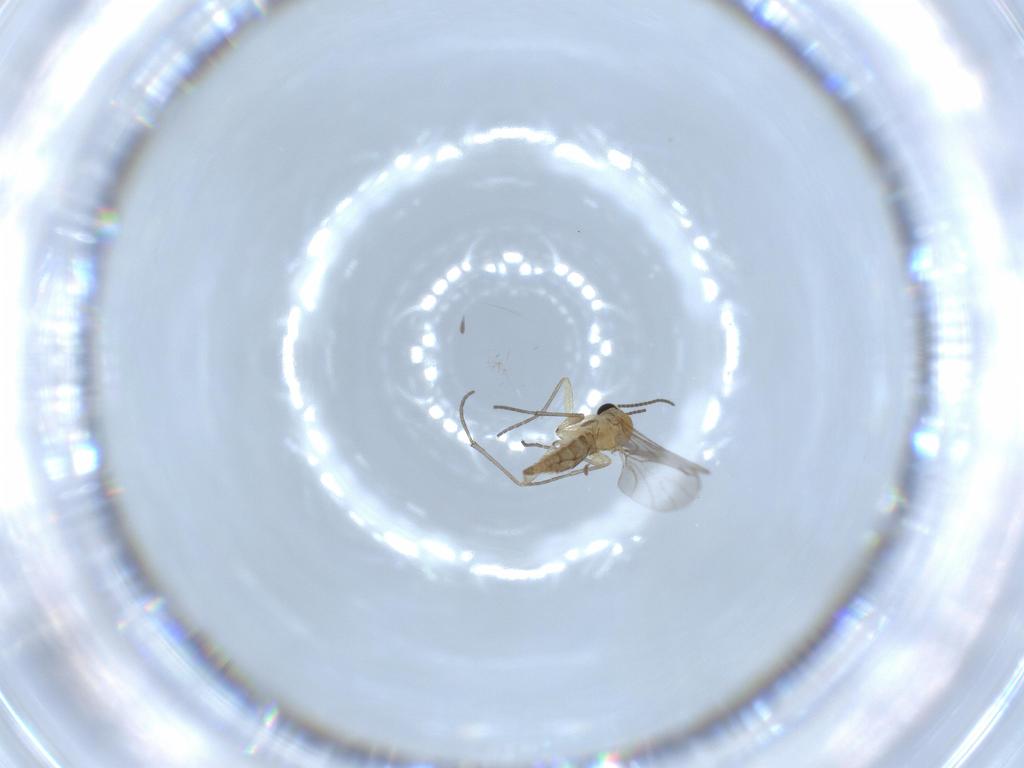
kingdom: Animalia
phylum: Arthropoda
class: Insecta
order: Diptera
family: Sciaridae
